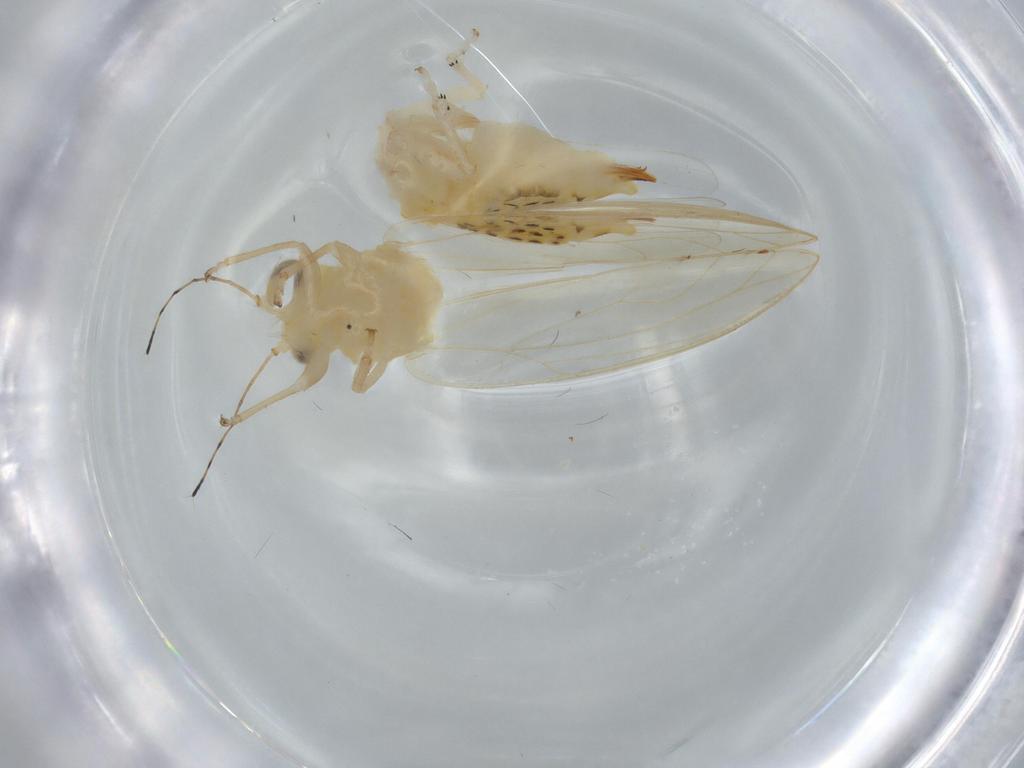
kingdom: Animalia
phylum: Arthropoda
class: Insecta
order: Hemiptera
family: Triozidae
